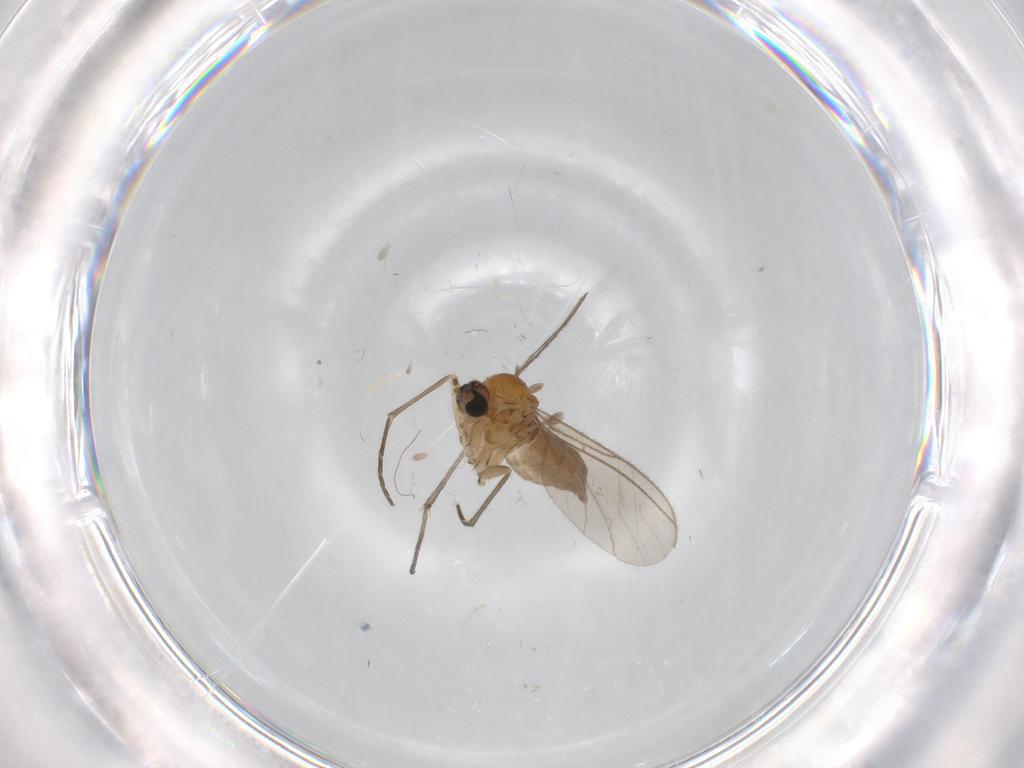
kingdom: Animalia
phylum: Arthropoda
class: Insecta
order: Diptera
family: Sciaridae
